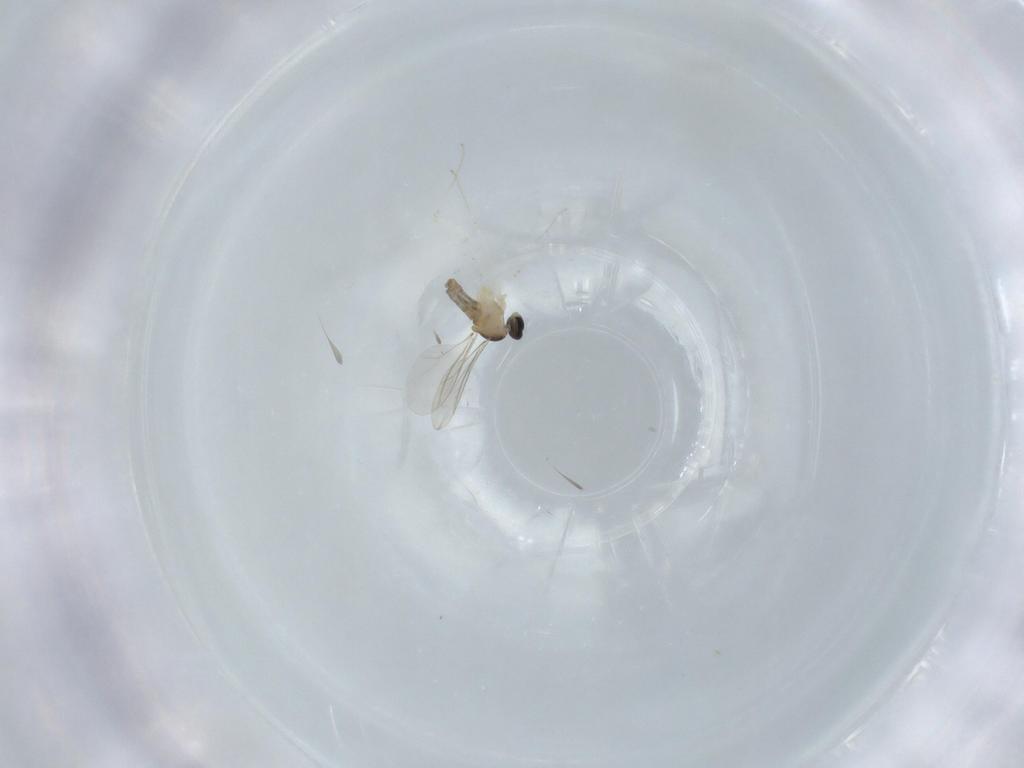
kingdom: Animalia
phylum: Arthropoda
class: Insecta
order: Diptera
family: Cecidomyiidae
